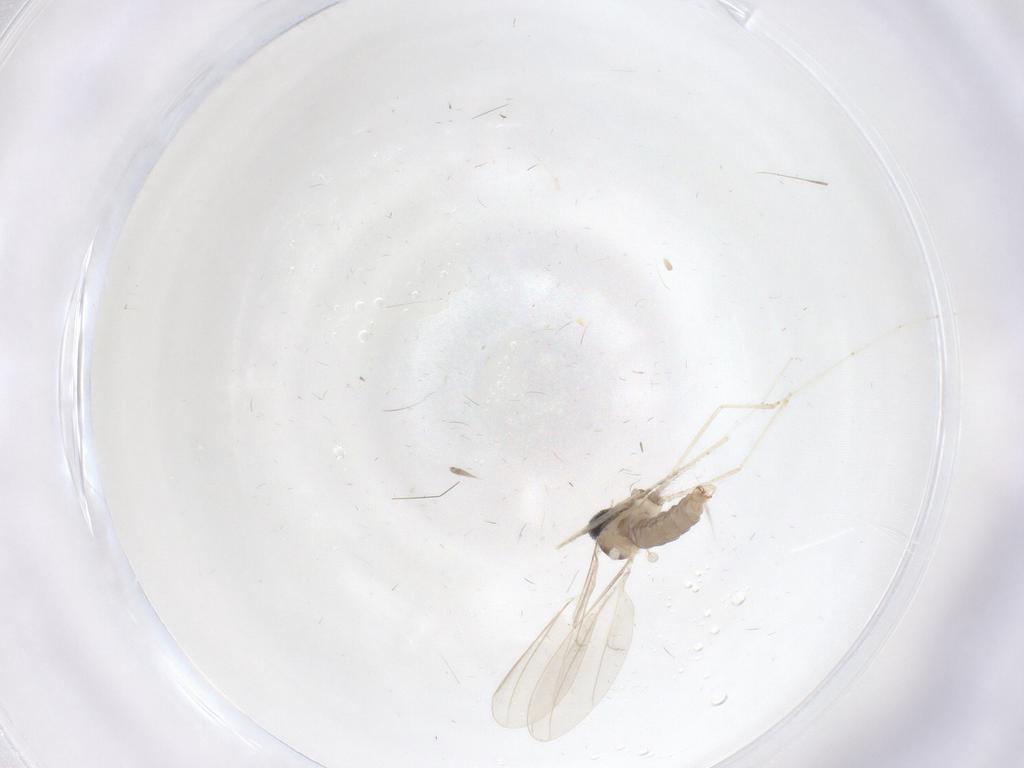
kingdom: Animalia
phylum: Arthropoda
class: Insecta
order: Diptera
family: Cecidomyiidae
